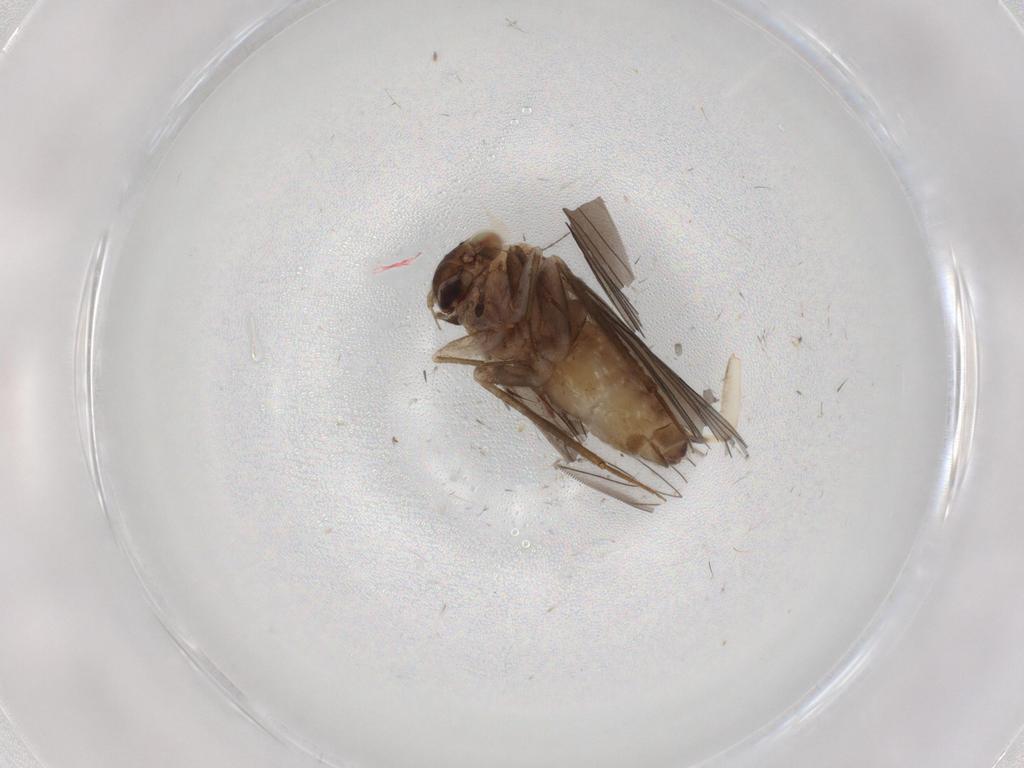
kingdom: Animalia
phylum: Arthropoda
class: Insecta
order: Psocodea
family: Lepidopsocidae
